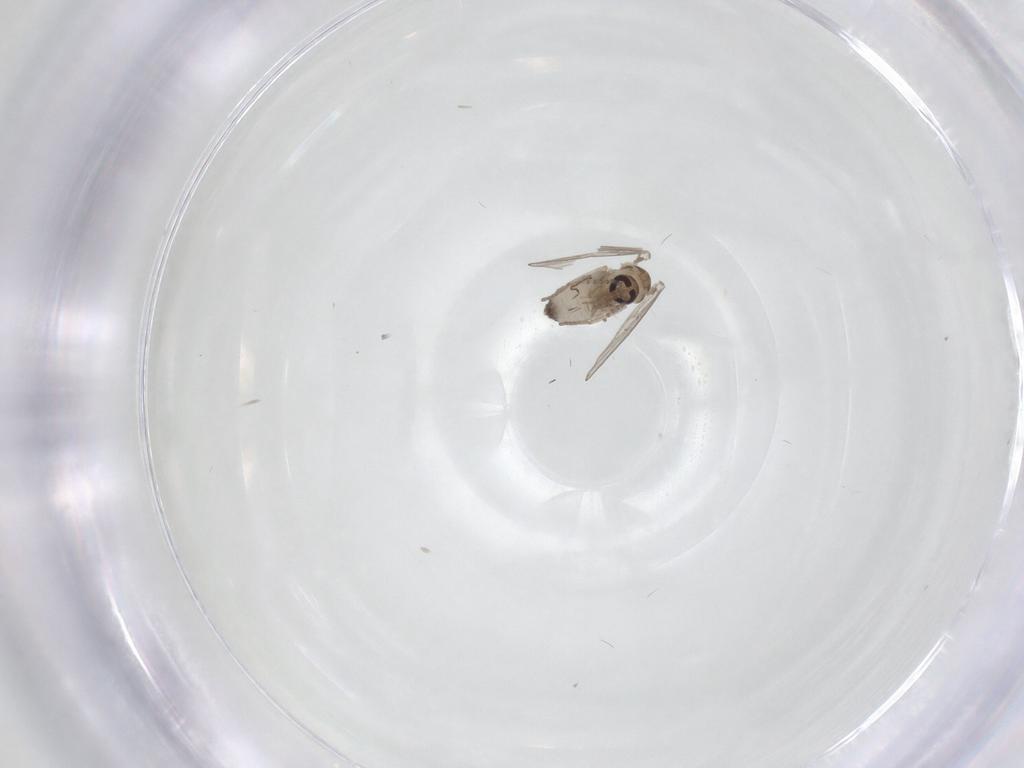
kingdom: Animalia
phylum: Arthropoda
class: Insecta
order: Diptera
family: Psychodidae
